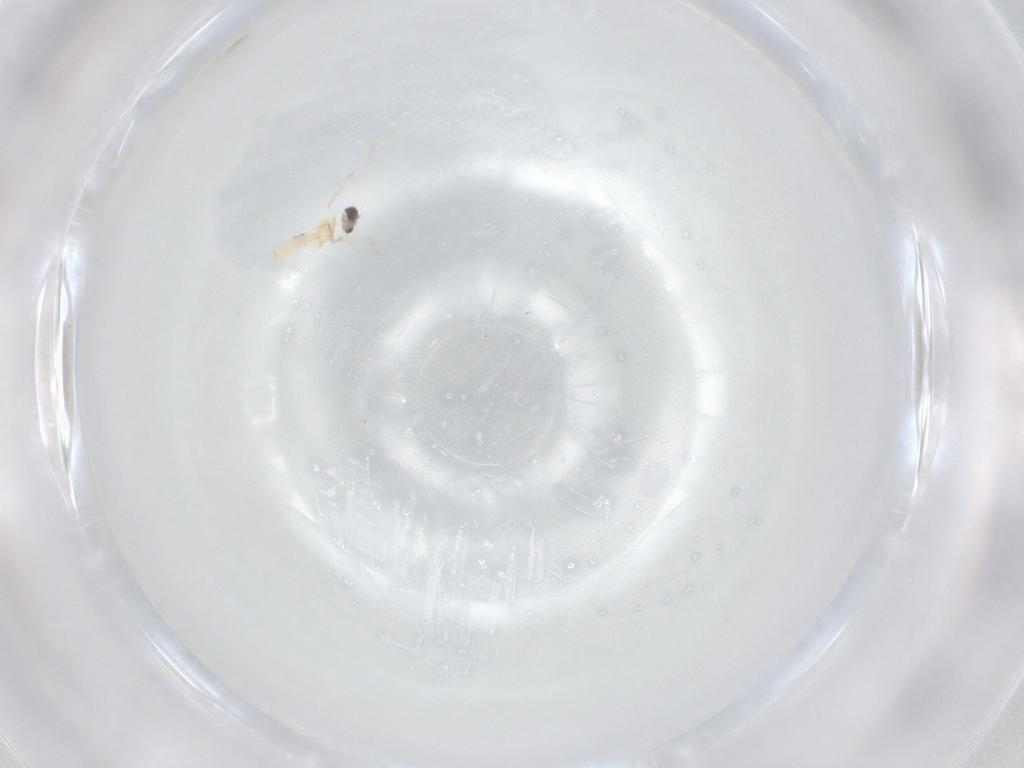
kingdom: Animalia
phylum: Arthropoda
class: Insecta
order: Diptera
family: Cecidomyiidae
